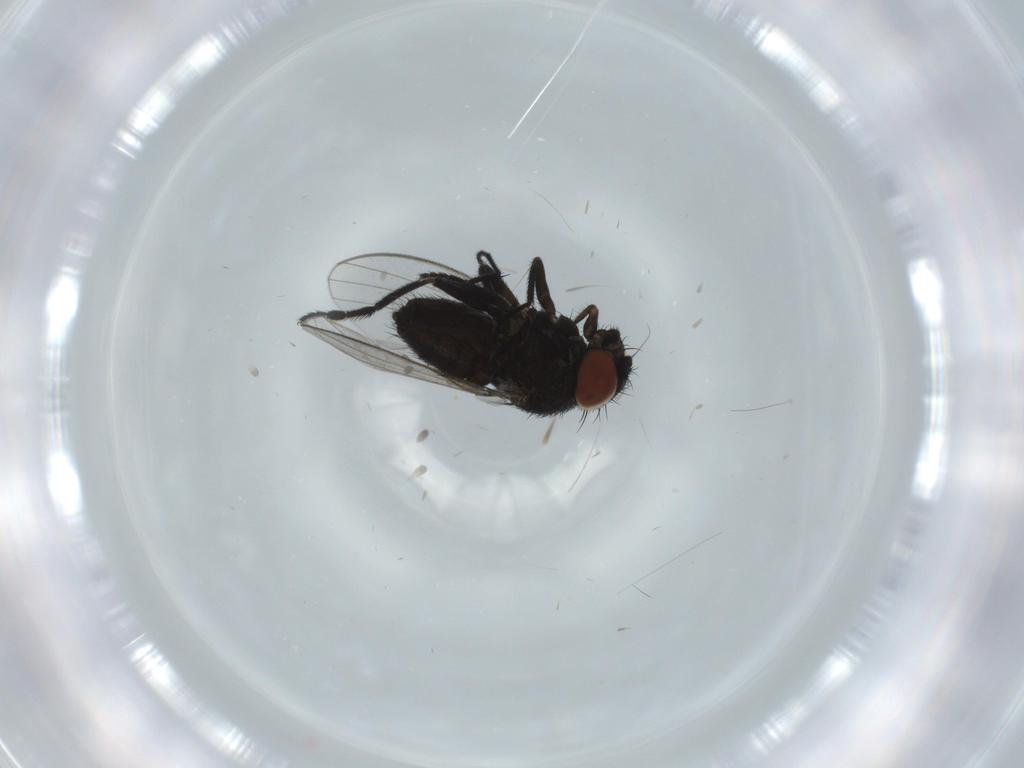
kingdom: Animalia
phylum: Arthropoda
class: Insecta
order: Diptera
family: Milichiidae
